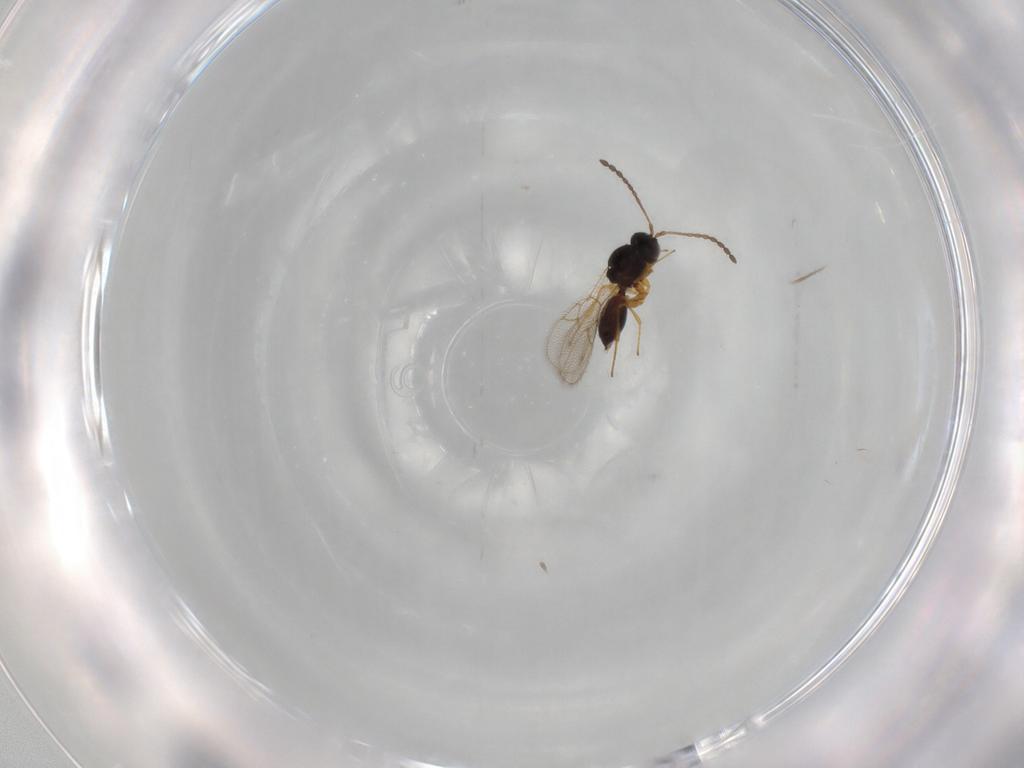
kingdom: Animalia
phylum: Arthropoda
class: Insecta
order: Hymenoptera
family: Figitidae
